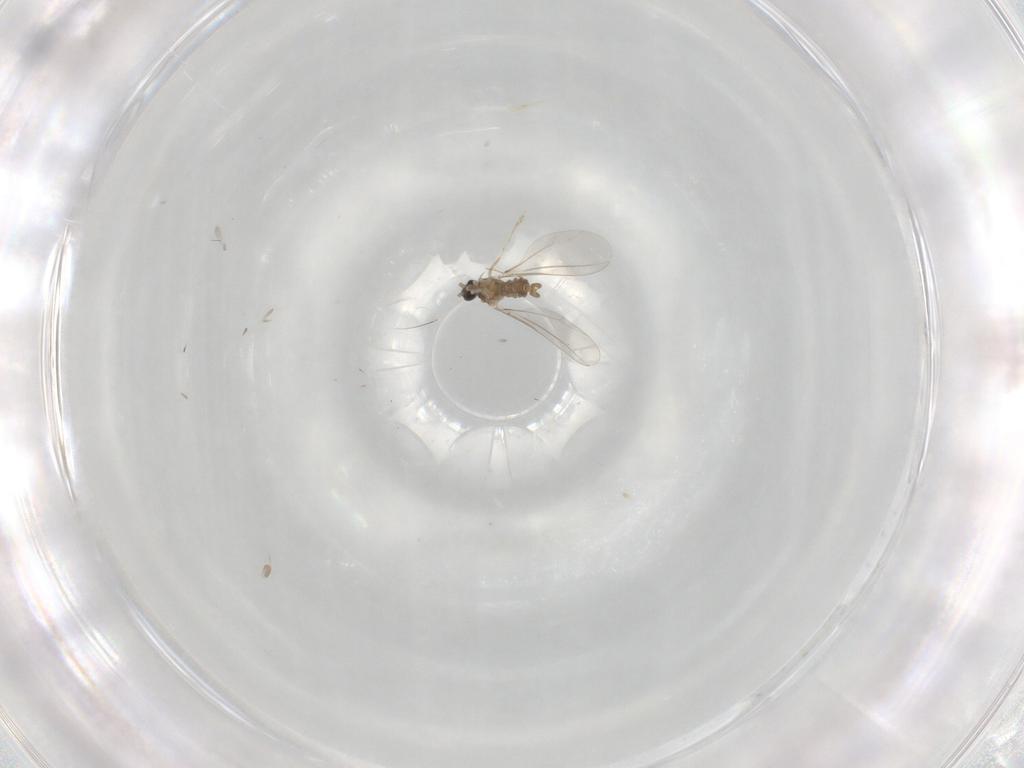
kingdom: Animalia
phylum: Arthropoda
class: Insecta
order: Diptera
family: Cecidomyiidae
